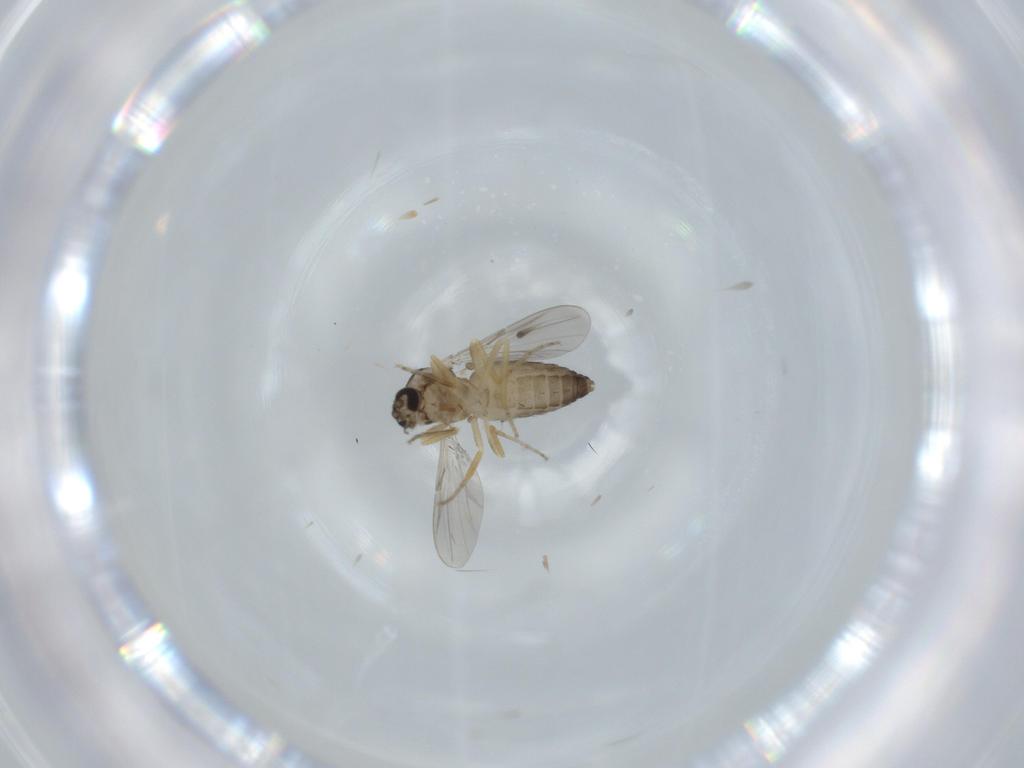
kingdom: Animalia
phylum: Arthropoda
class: Insecta
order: Diptera
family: Ceratopogonidae
